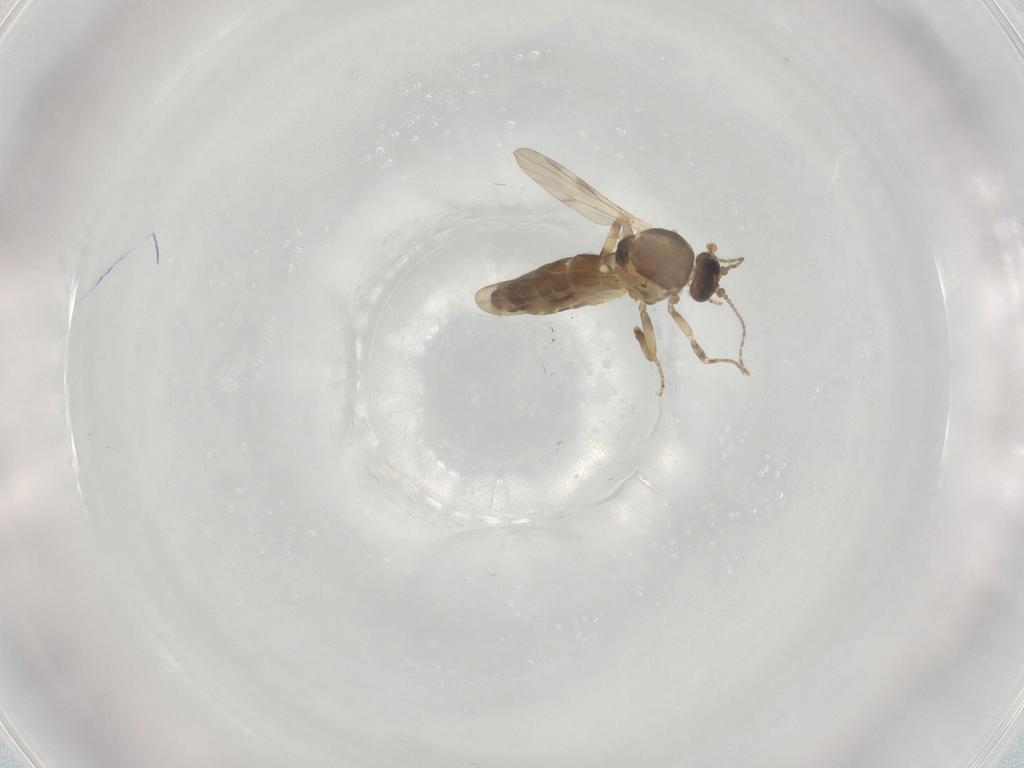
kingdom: Animalia
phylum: Arthropoda
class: Insecta
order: Diptera
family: Ceratopogonidae
